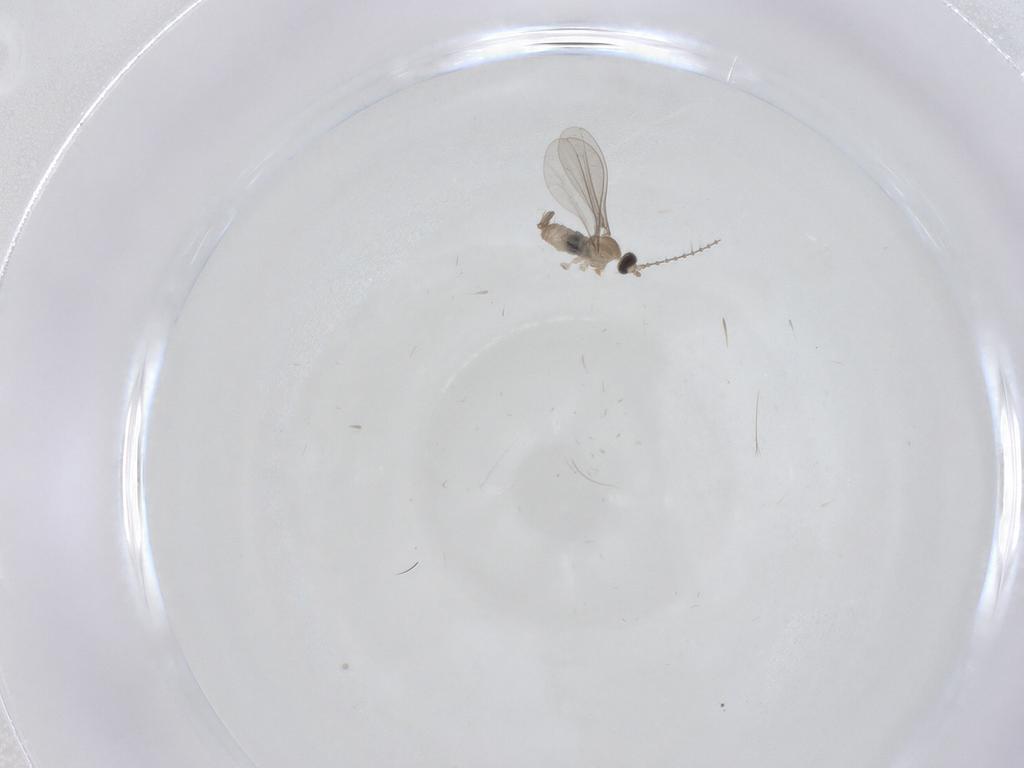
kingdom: Animalia
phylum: Arthropoda
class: Insecta
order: Diptera
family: Cecidomyiidae
